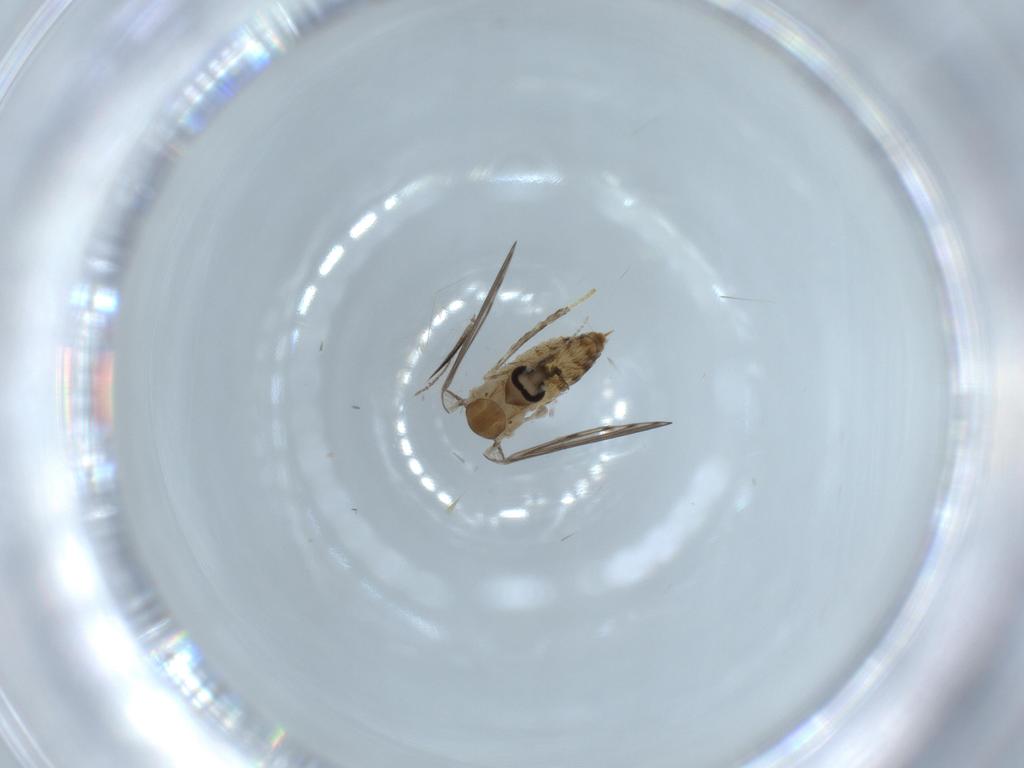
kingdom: Animalia
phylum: Arthropoda
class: Insecta
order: Diptera
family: Psychodidae
